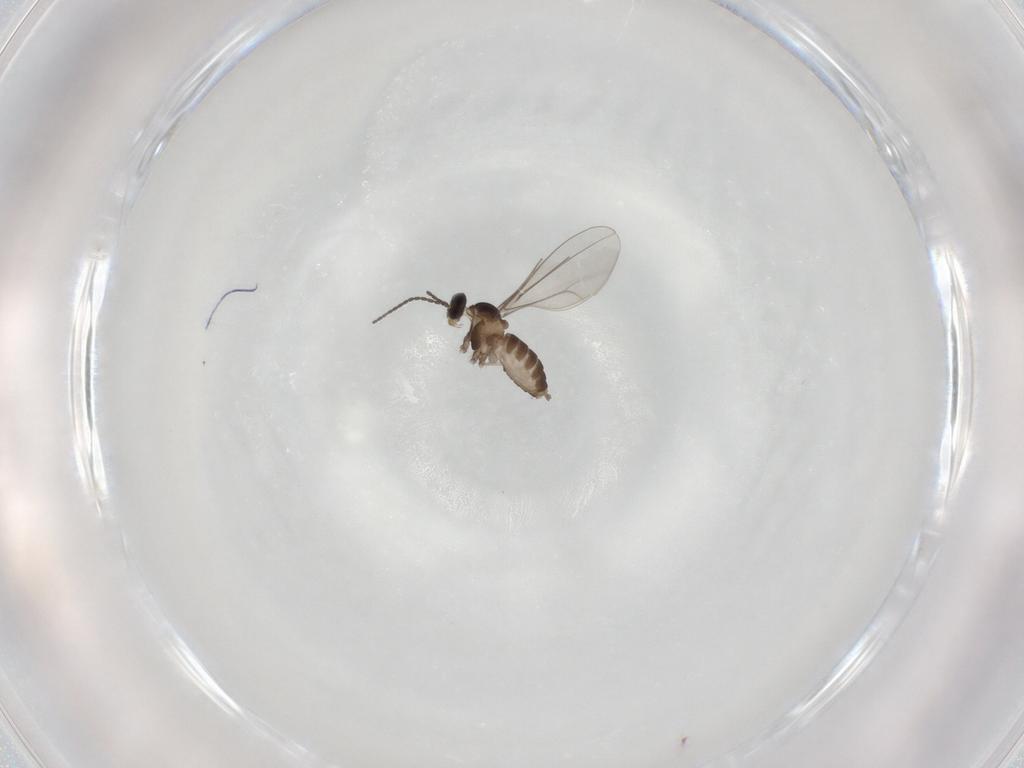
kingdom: Animalia
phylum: Arthropoda
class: Insecta
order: Diptera
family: Cecidomyiidae
